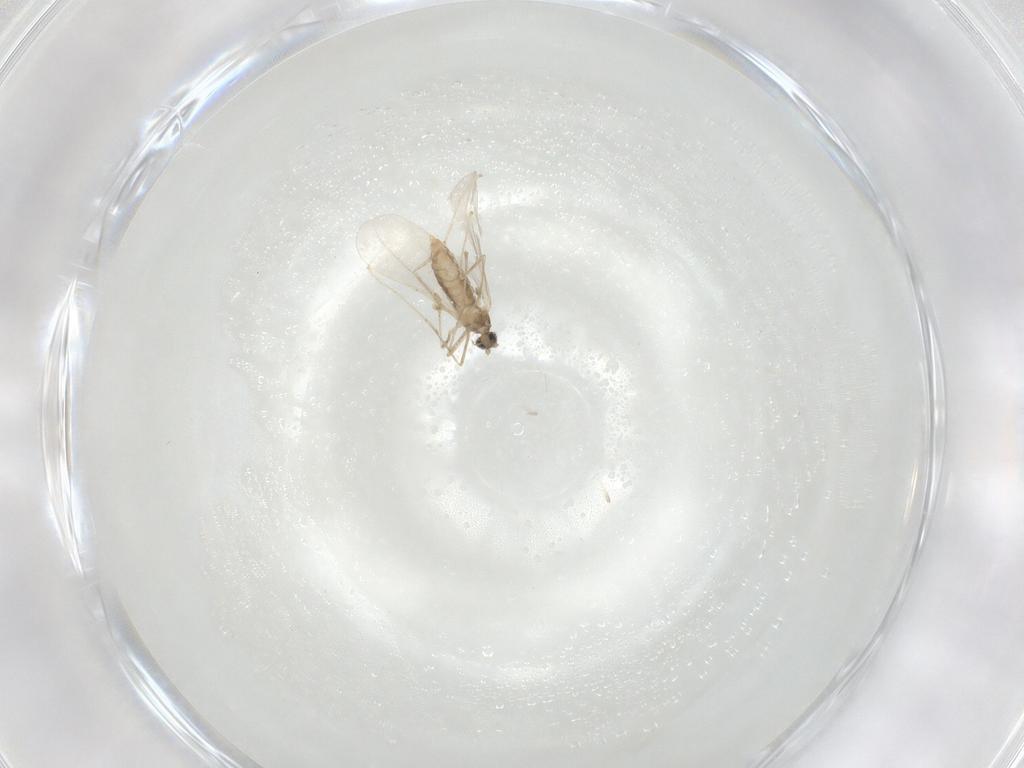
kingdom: Animalia
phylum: Arthropoda
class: Insecta
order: Diptera
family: Cecidomyiidae
